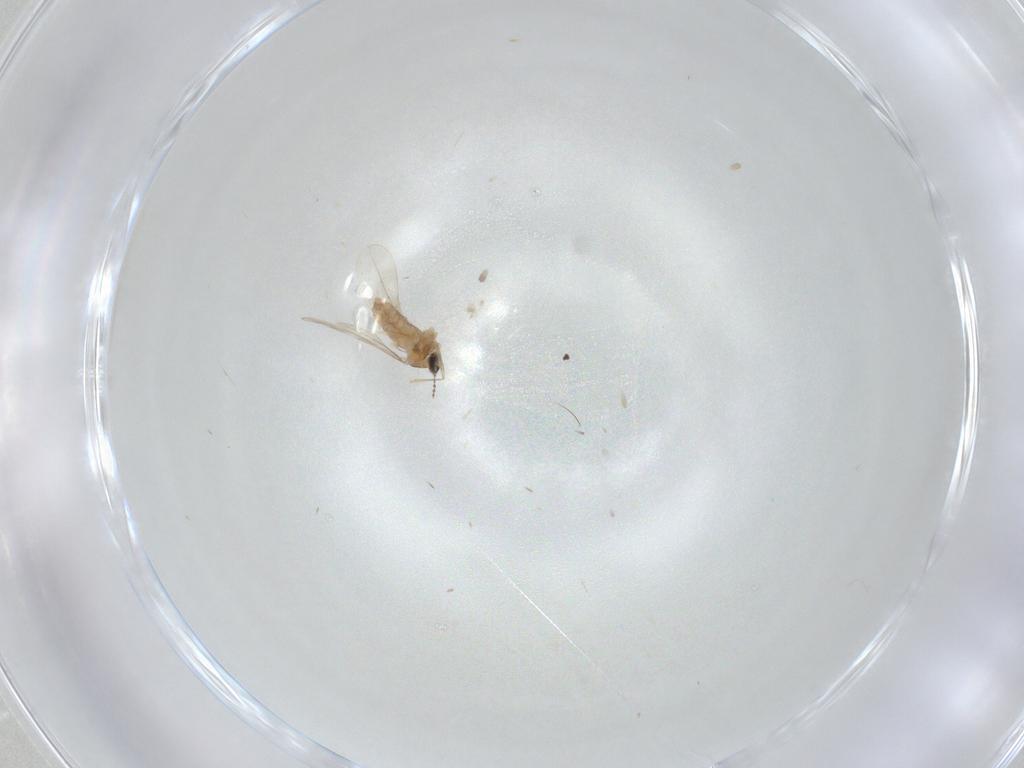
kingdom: Animalia
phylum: Arthropoda
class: Insecta
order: Diptera
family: Cecidomyiidae
